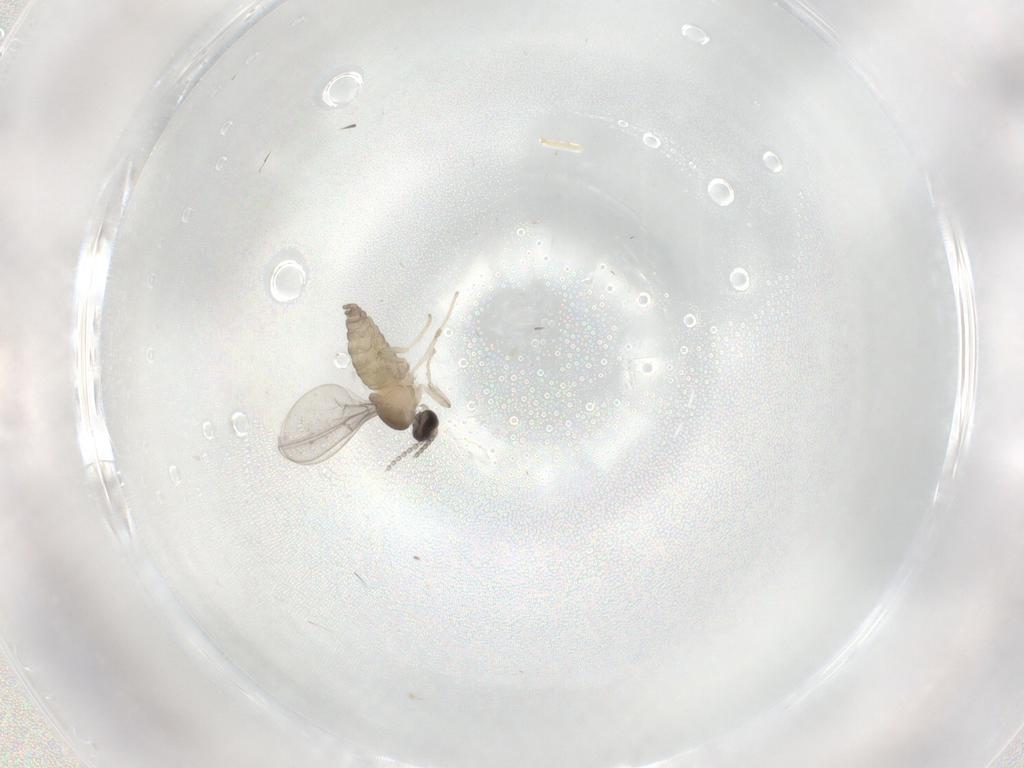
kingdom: Animalia
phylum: Arthropoda
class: Insecta
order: Diptera
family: Cecidomyiidae
